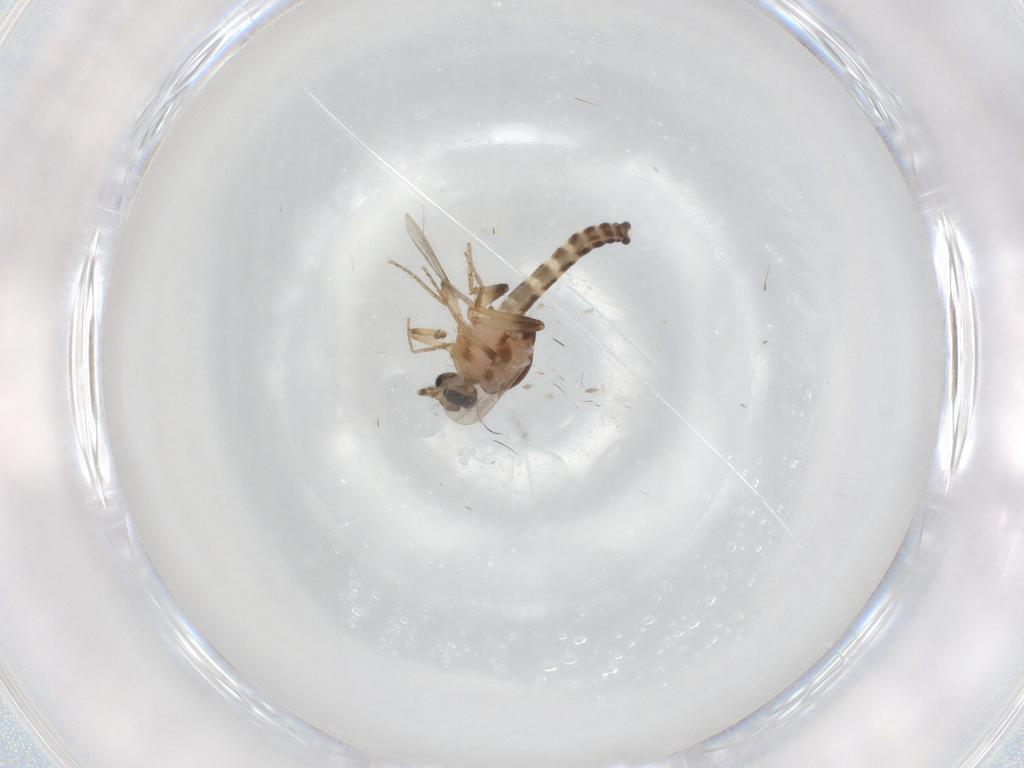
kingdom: Animalia
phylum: Arthropoda
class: Insecta
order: Diptera
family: Ceratopogonidae
